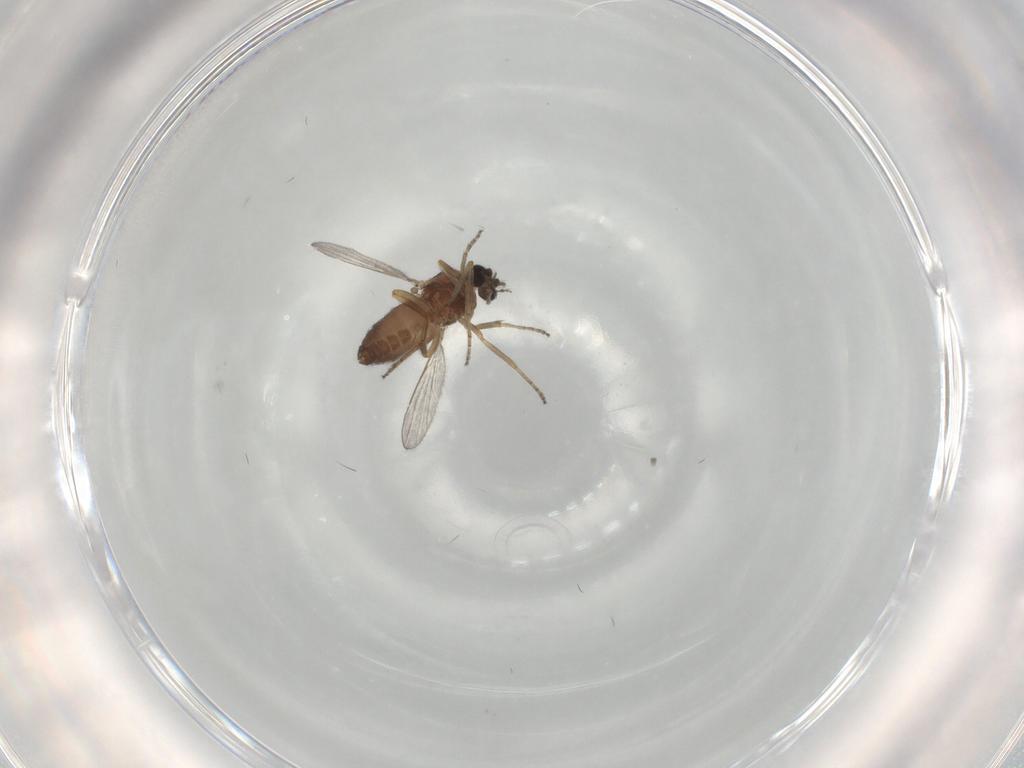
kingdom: Animalia
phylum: Arthropoda
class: Insecta
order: Diptera
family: Ceratopogonidae
